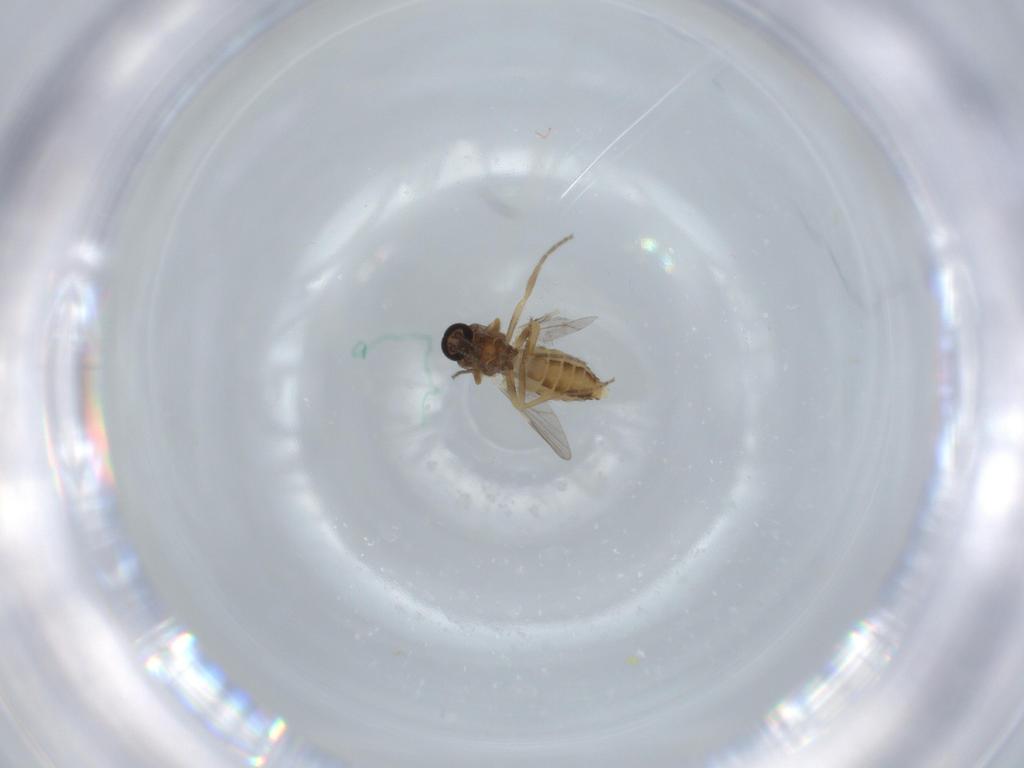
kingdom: Animalia
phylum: Arthropoda
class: Insecta
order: Diptera
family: Ceratopogonidae
